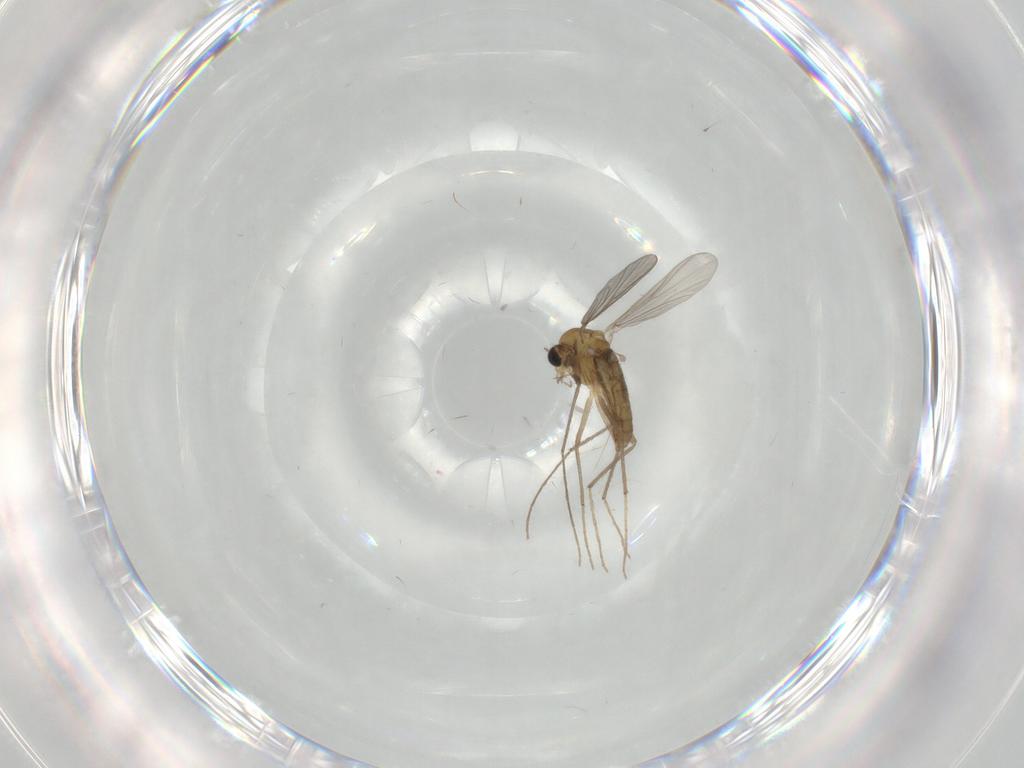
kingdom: Animalia
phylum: Arthropoda
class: Insecta
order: Diptera
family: Chironomidae
